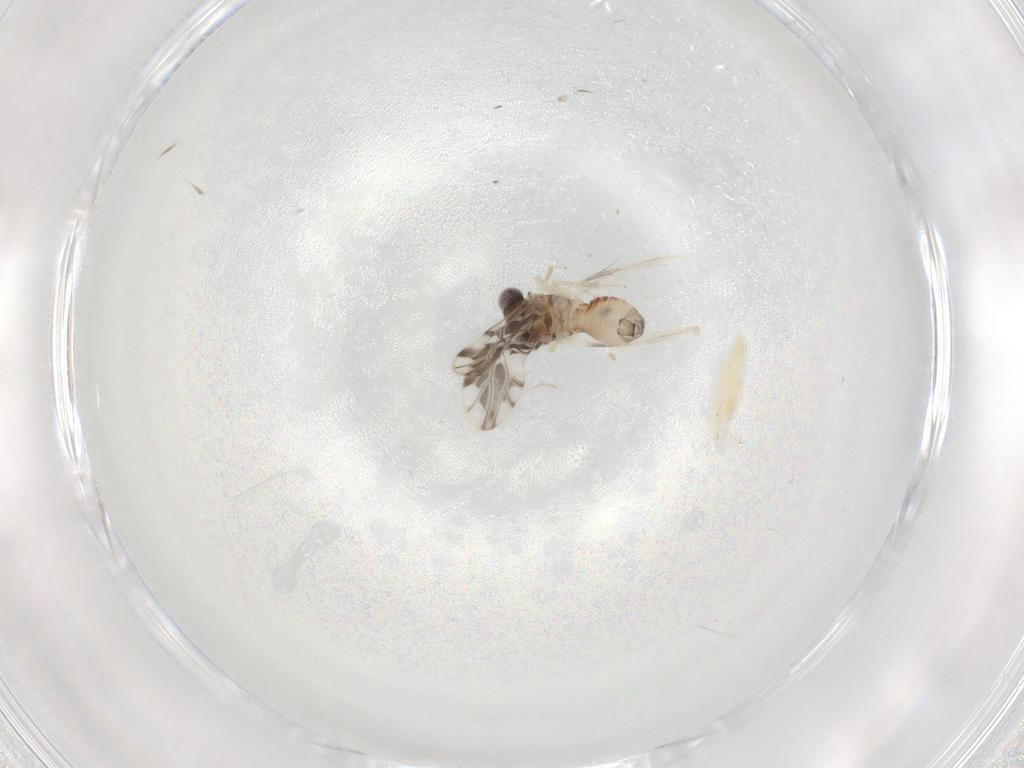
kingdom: Animalia
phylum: Arthropoda
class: Insecta
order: Psocodea
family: Ectopsocidae
